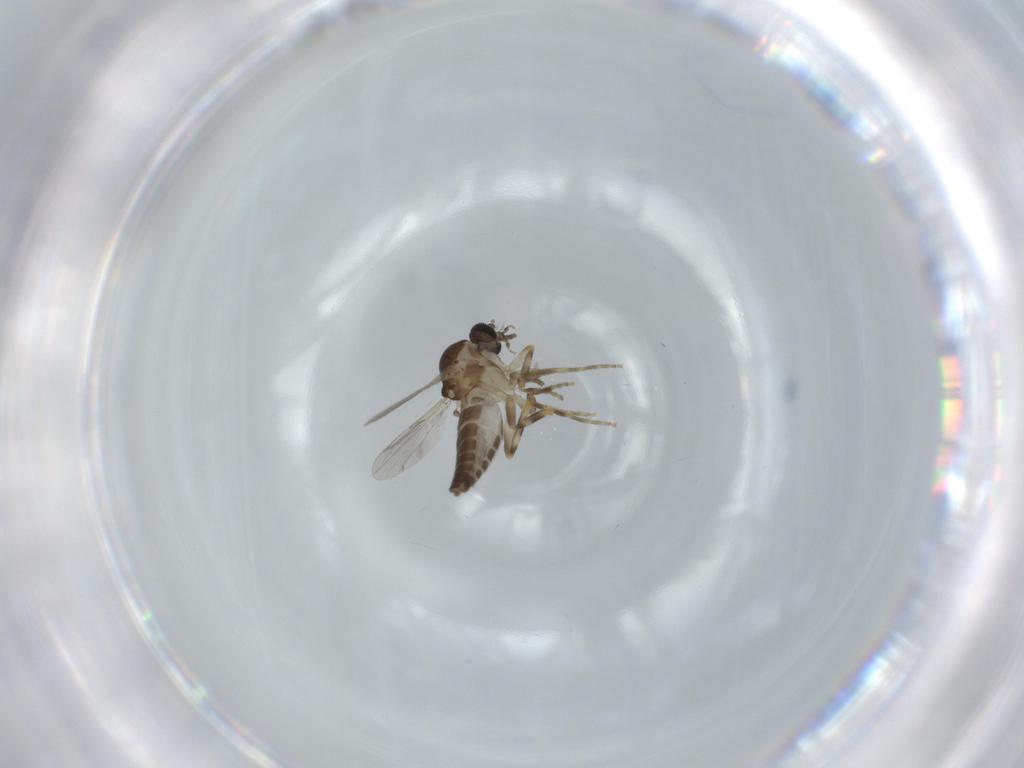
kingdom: Animalia
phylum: Arthropoda
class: Insecta
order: Diptera
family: Ceratopogonidae
